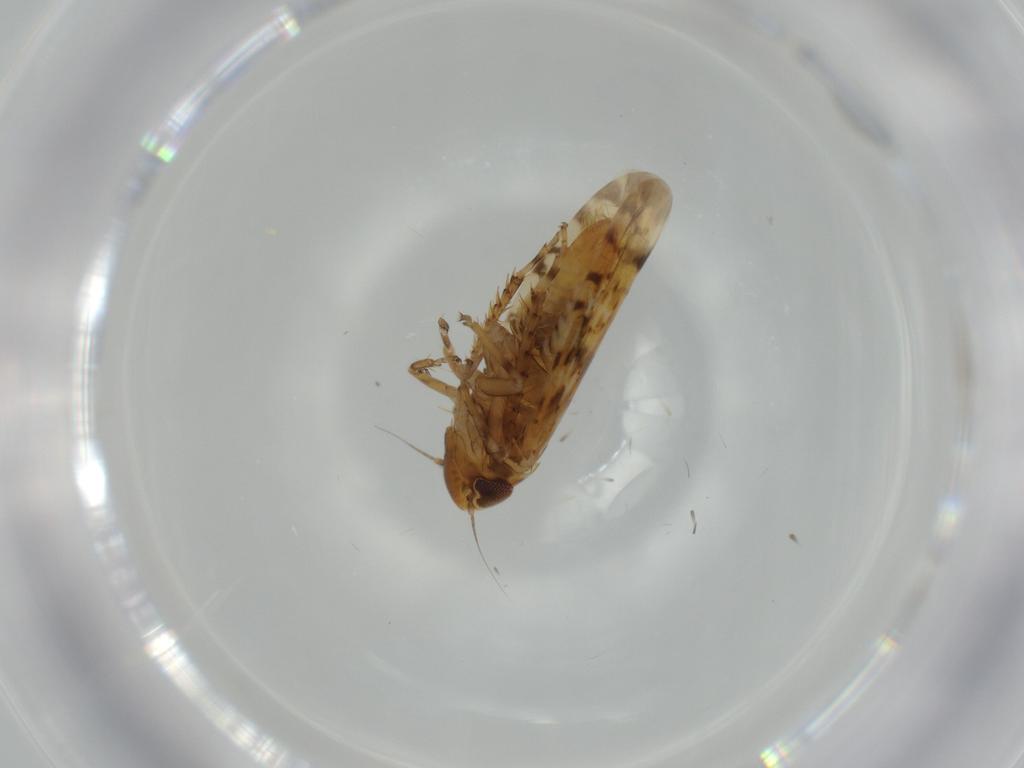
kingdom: Animalia
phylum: Arthropoda
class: Insecta
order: Hemiptera
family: Cicadellidae
